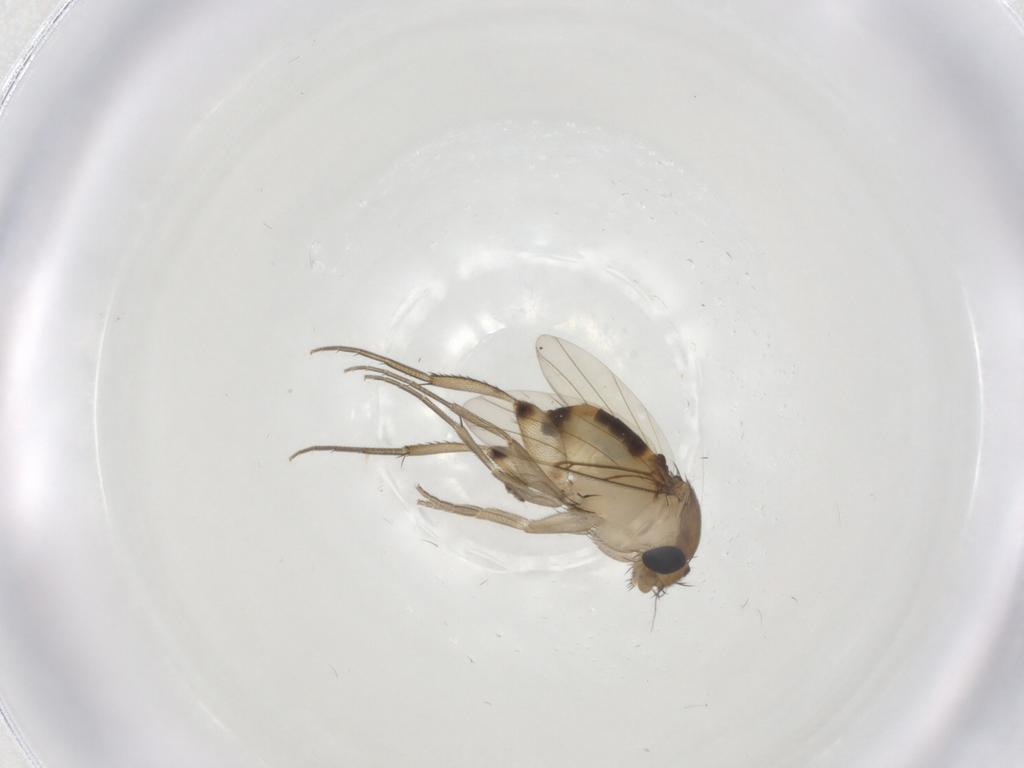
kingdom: Animalia
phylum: Arthropoda
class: Insecta
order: Diptera
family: Phoridae
